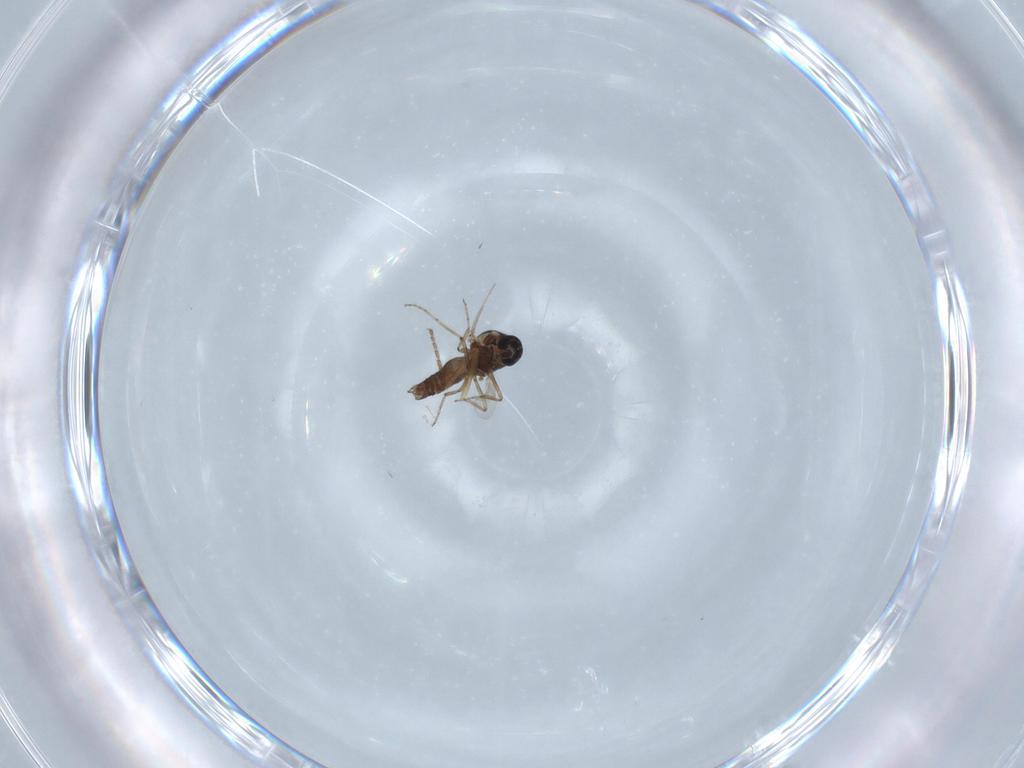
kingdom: Animalia
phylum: Arthropoda
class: Insecta
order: Diptera
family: Ceratopogonidae
